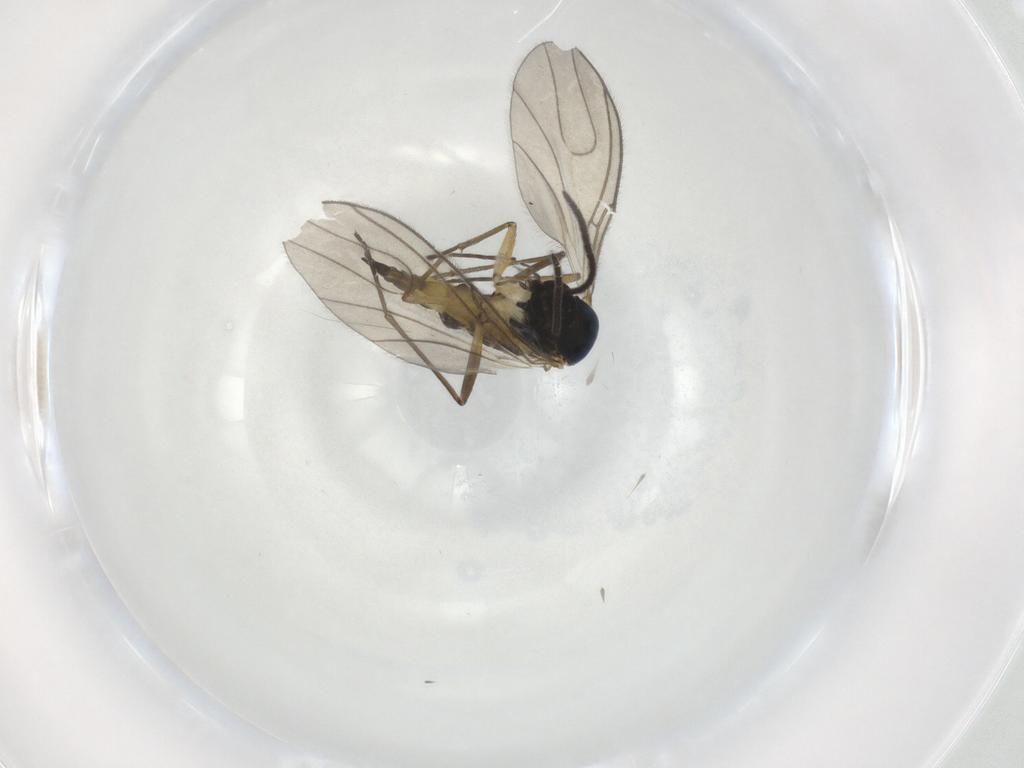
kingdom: Animalia
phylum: Arthropoda
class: Insecta
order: Diptera
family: Sciaridae
